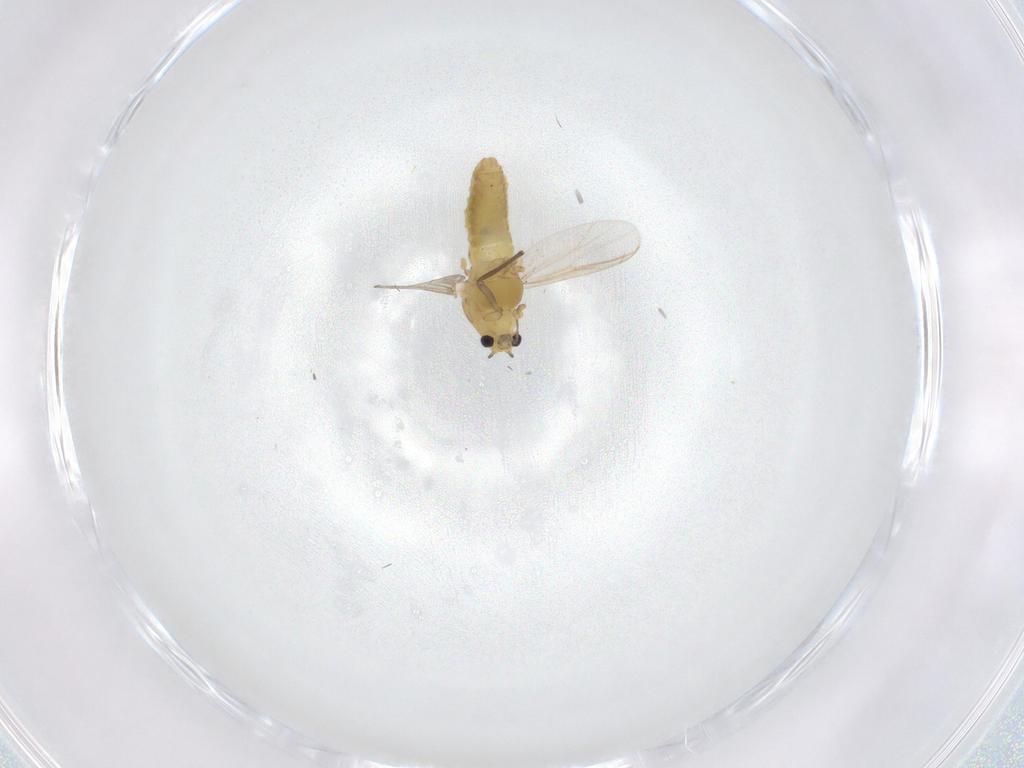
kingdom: Animalia
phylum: Arthropoda
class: Insecta
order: Diptera
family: Chironomidae
